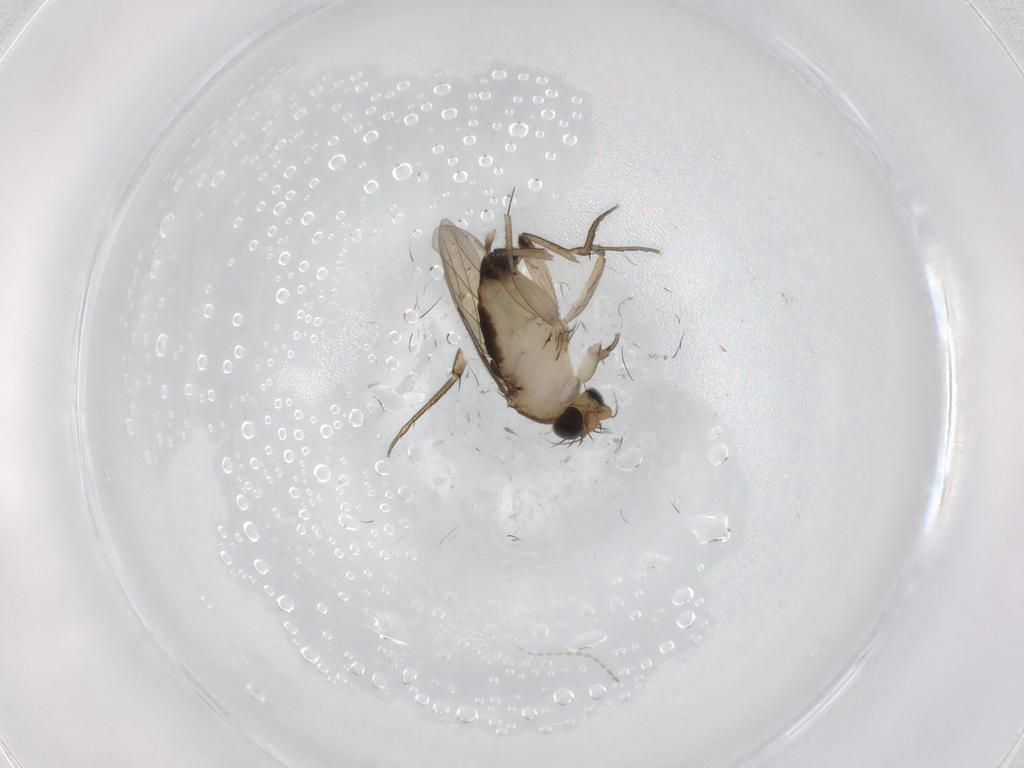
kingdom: Animalia
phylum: Arthropoda
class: Insecta
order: Diptera
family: Phoridae
